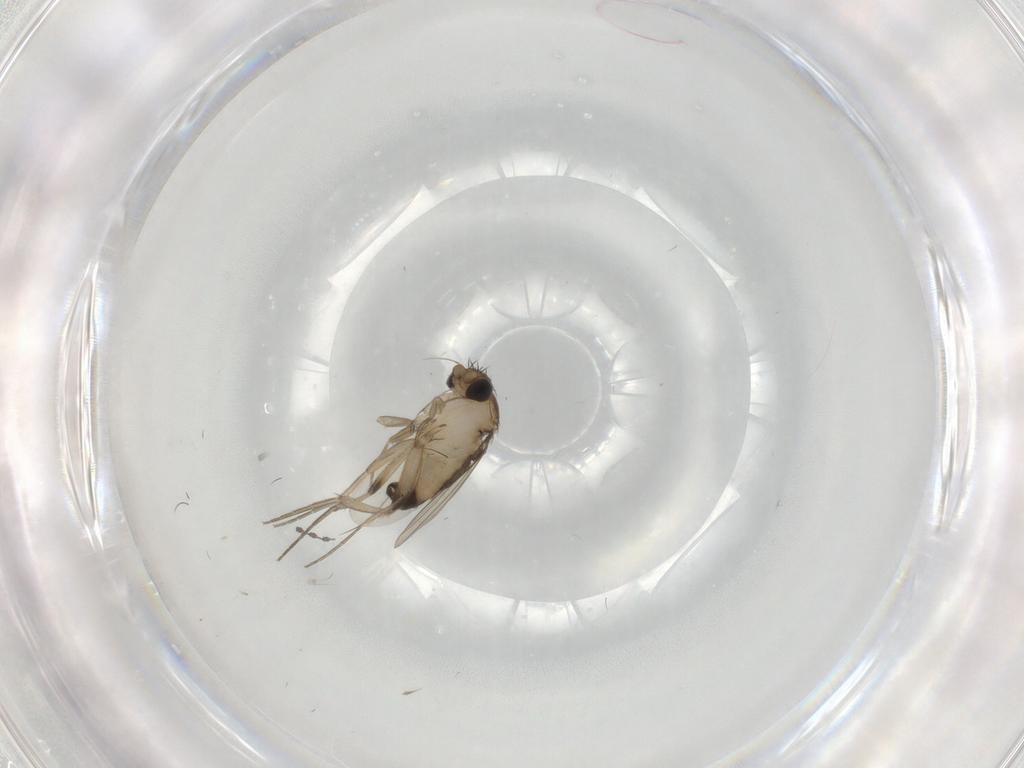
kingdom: Animalia
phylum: Arthropoda
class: Insecta
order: Diptera
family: Phoridae
